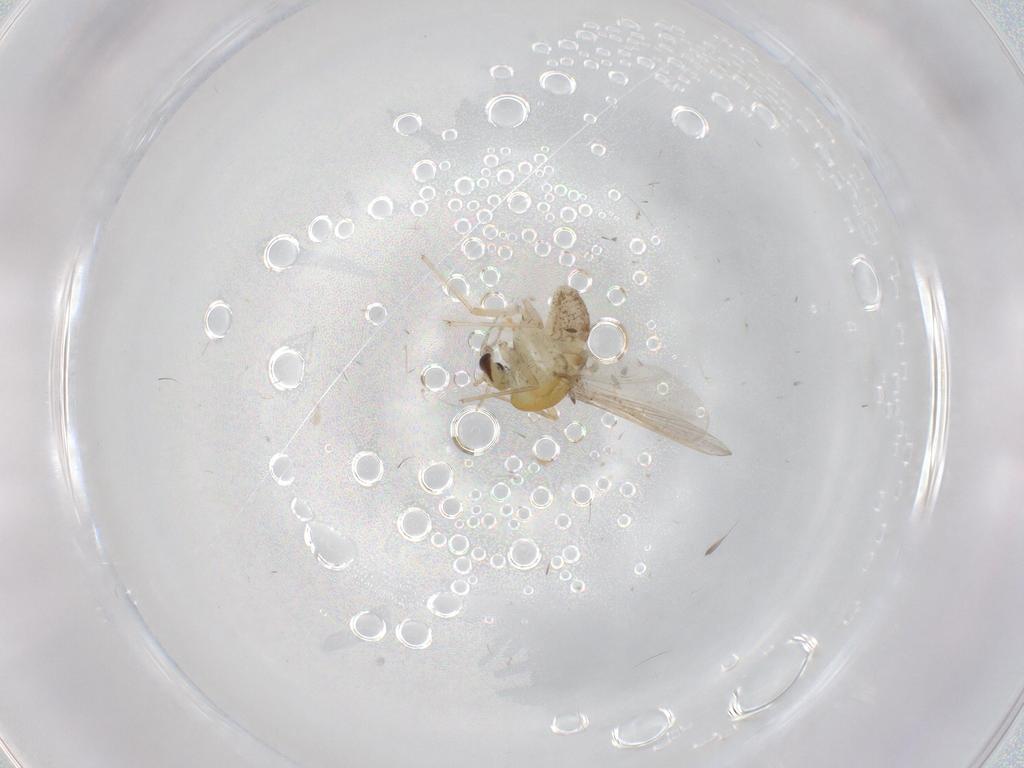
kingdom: Animalia
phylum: Arthropoda
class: Insecta
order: Diptera
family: Chironomidae
